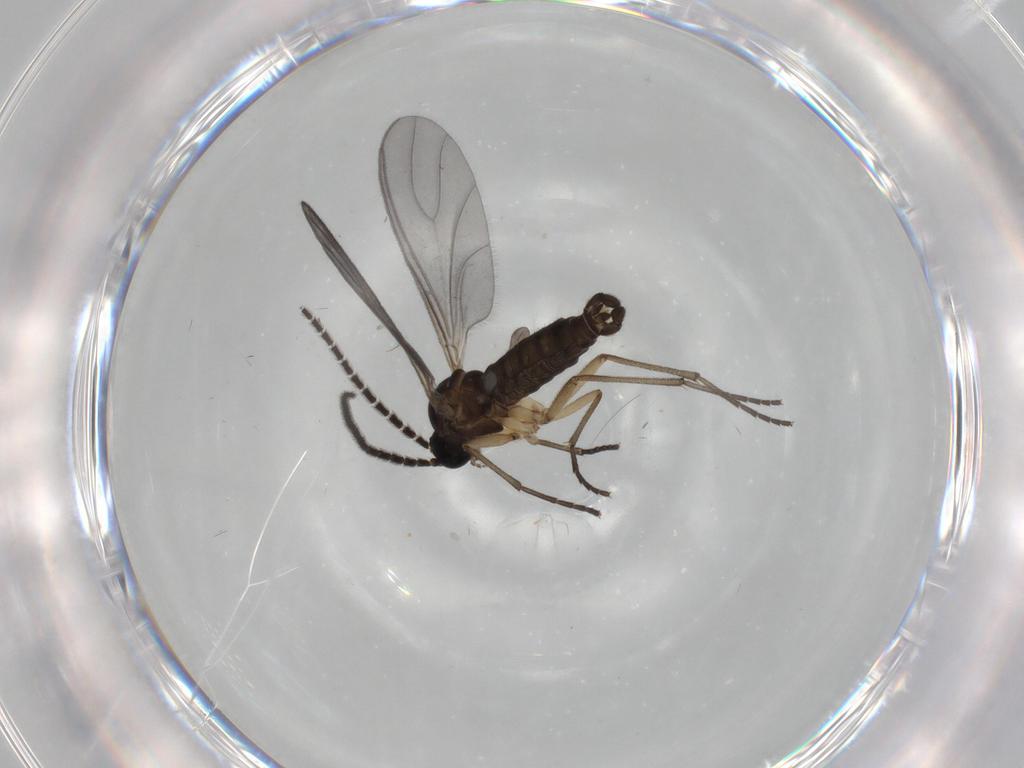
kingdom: Animalia
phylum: Arthropoda
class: Insecta
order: Diptera
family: Sciaridae
